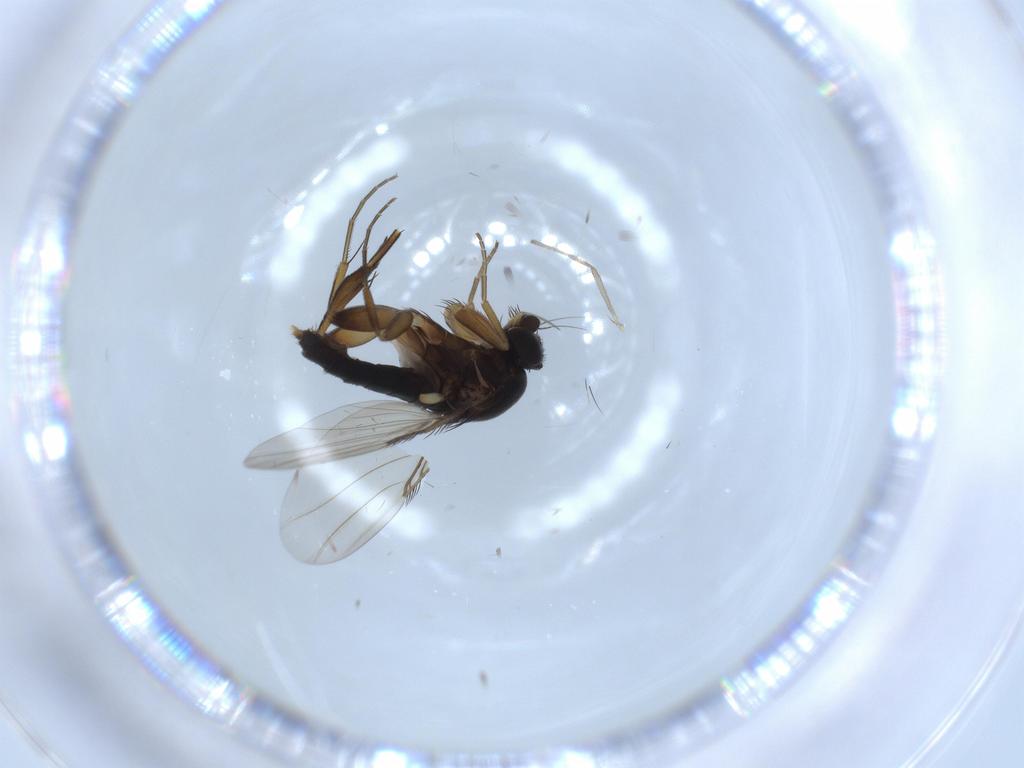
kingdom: Animalia
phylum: Arthropoda
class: Insecta
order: Diptera
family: Phoridae
